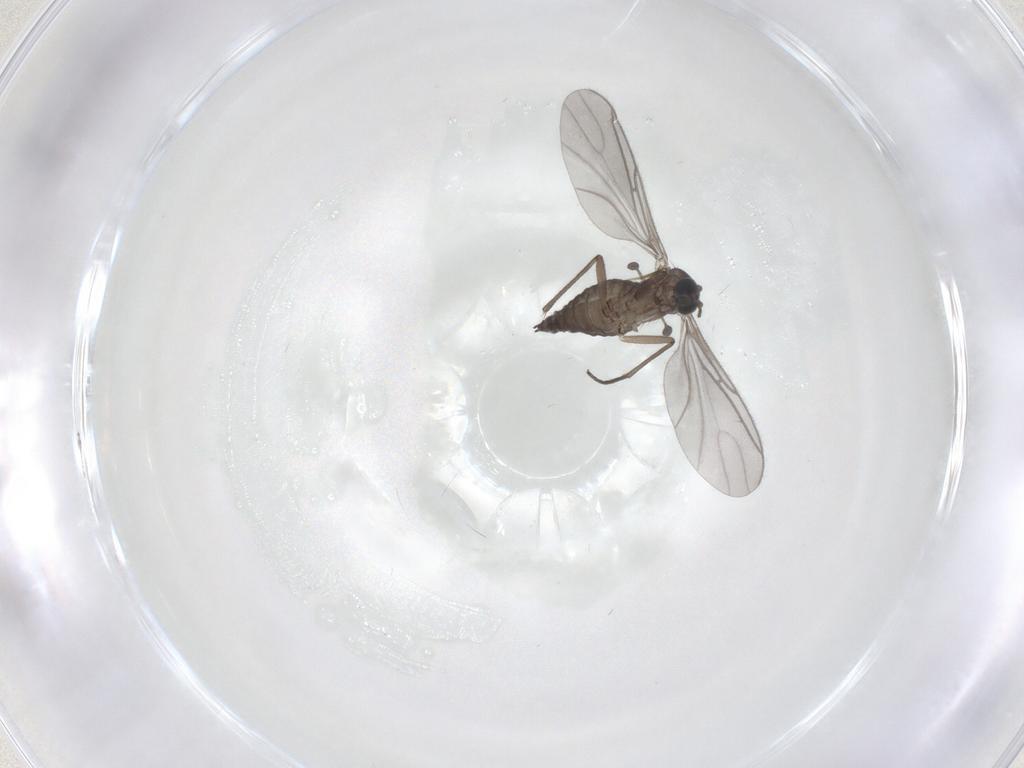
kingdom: Animalia
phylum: Arthropoda
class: Insecta
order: Diptera
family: Sciaridae
